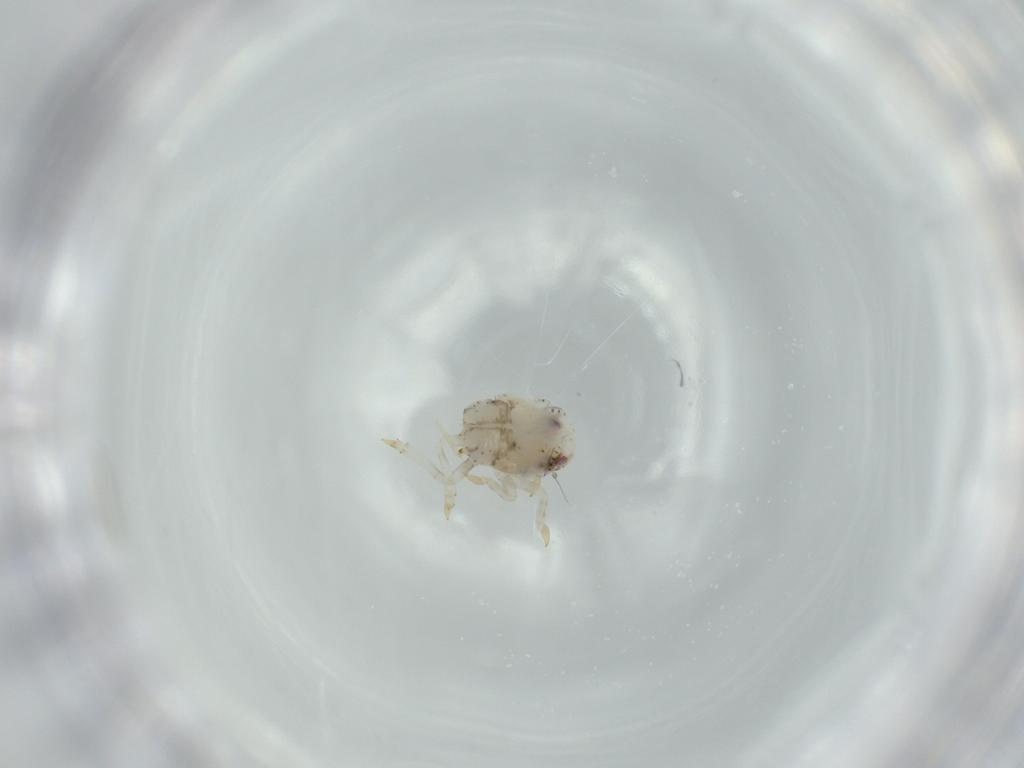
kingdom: Animalia
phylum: Arthropoda
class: Insecta
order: Hemiptera
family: Acanaloniidae
